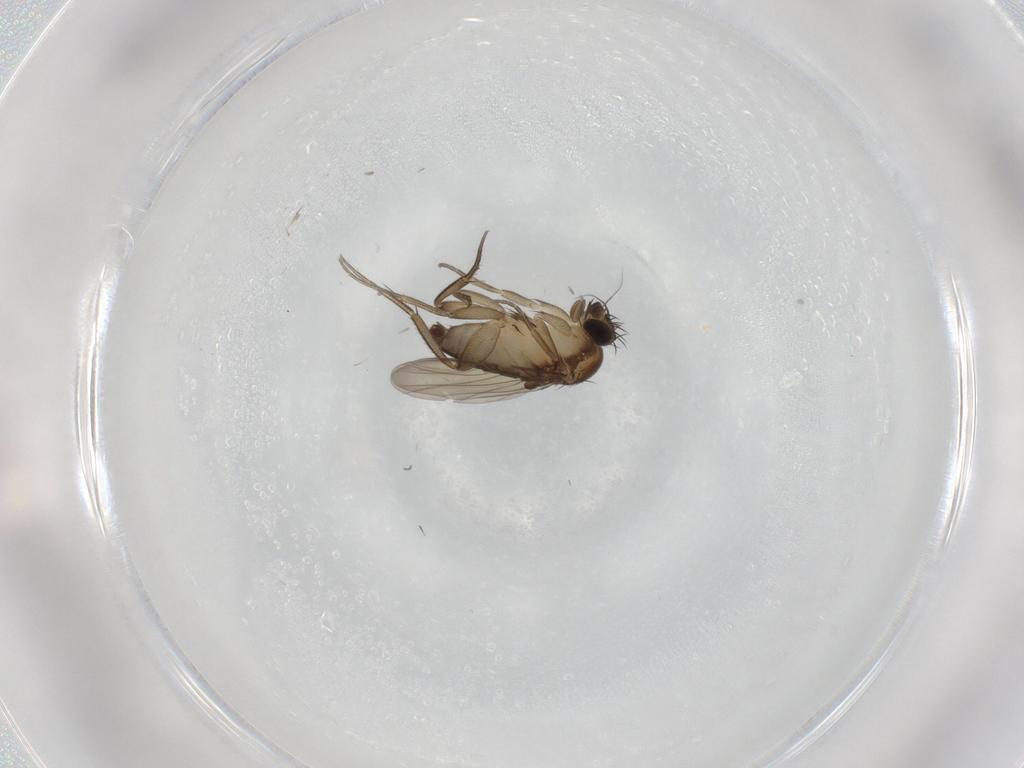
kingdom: Animalia
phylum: Arthropoda
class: Insecta
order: Diptera
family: Phoridae
